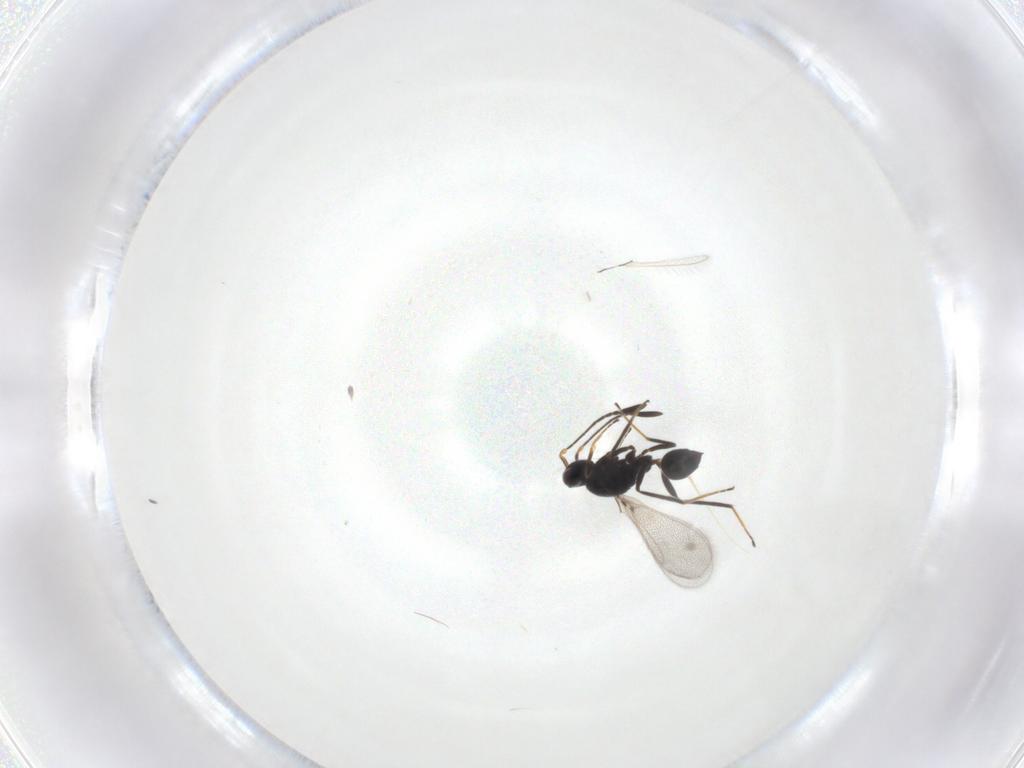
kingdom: Animalia
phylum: Arthropoda
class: Insecta
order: Hymenoptera
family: Mymaridae
